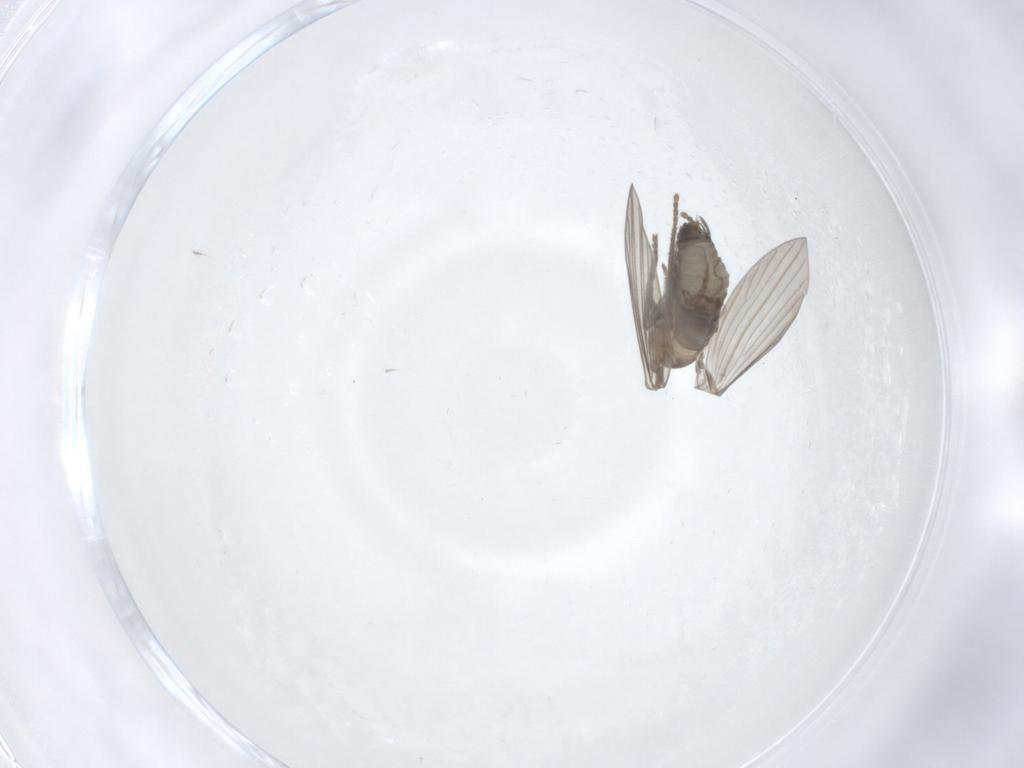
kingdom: Animalia
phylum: Arthropoda
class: Insecta
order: Diptera
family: Psychodidae
